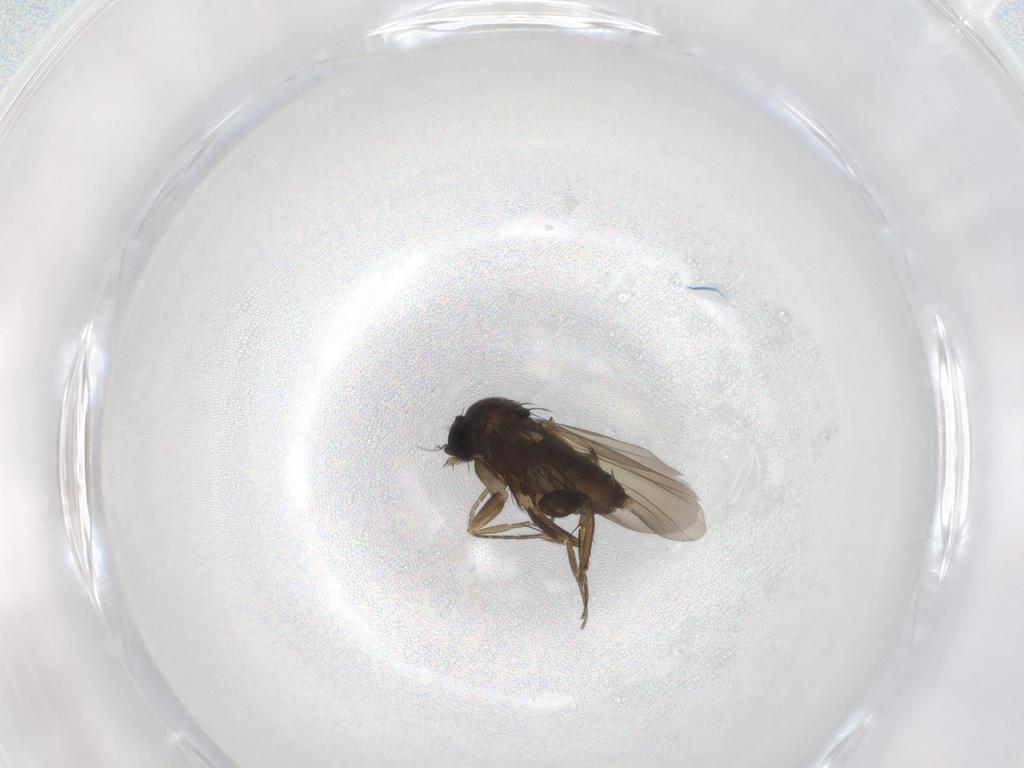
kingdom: Animalia
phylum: Arthropoda
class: Insecta
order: Diptera
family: Phoridae
